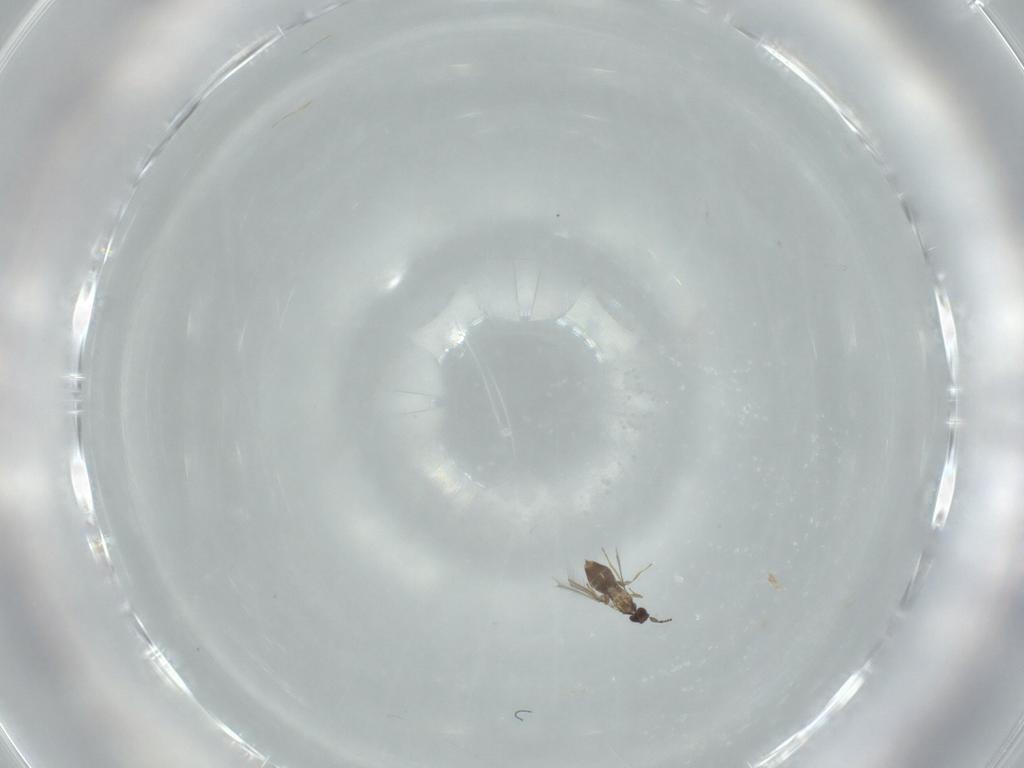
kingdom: Animalia
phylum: Arthropoda
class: Insecta
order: Hymenoptera
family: Mymaridae
